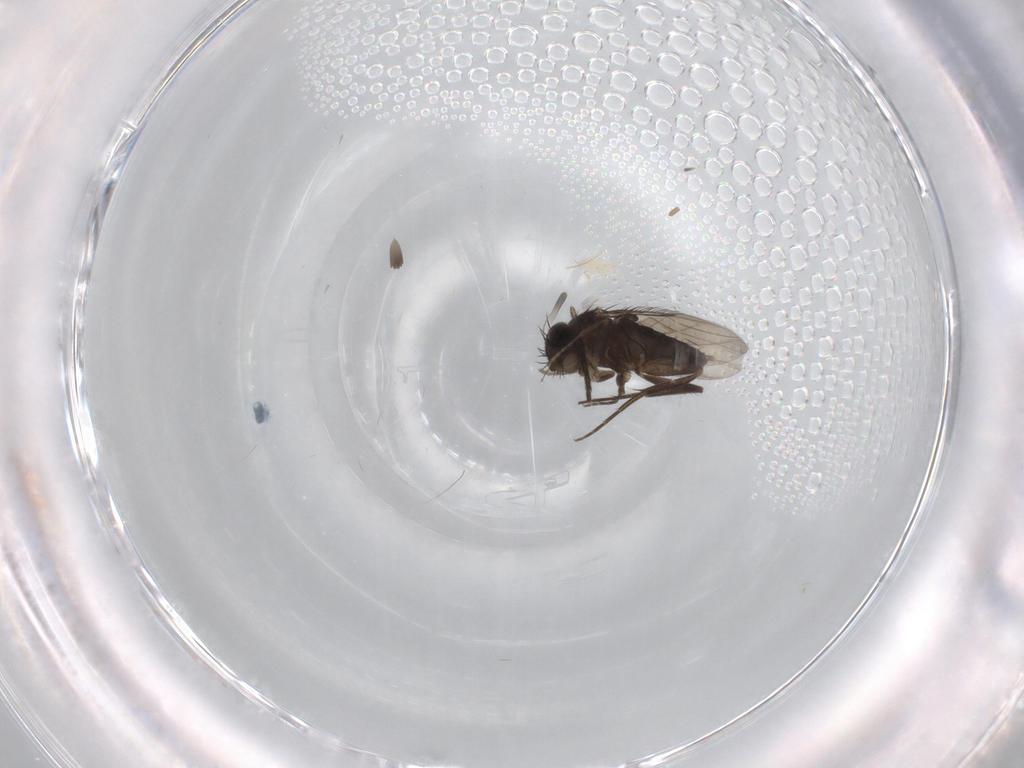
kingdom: Animalia
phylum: Arthropoda
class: Insecta
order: Diptera
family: Phoridae
